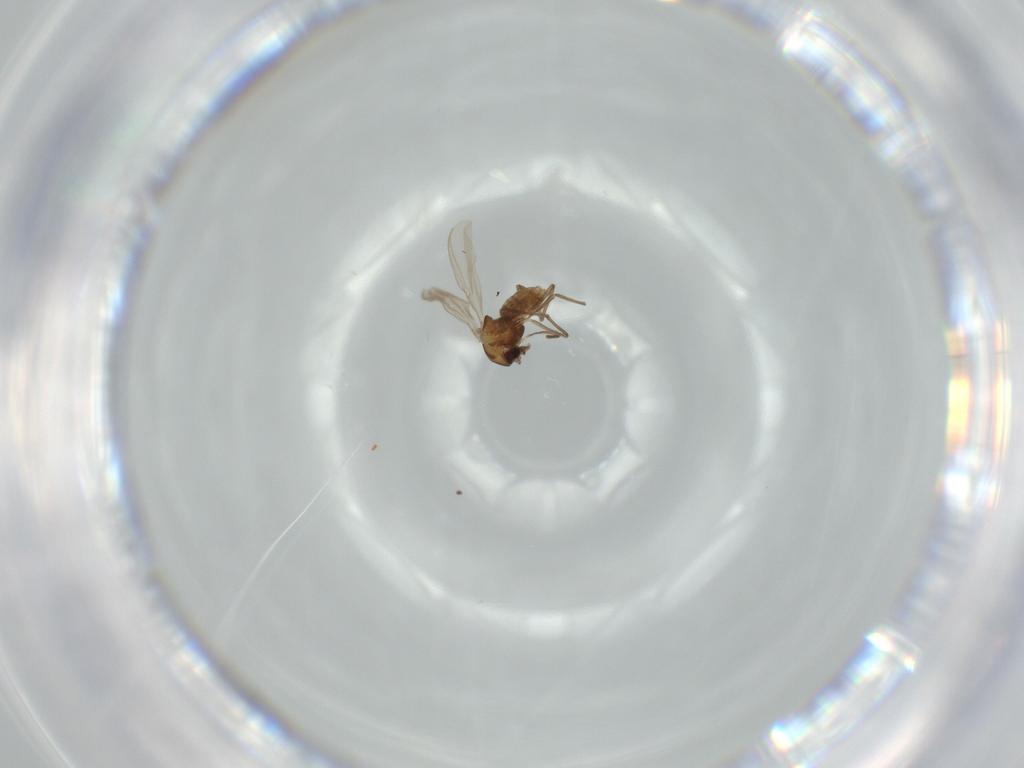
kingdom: Animalia
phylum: Arthropoda
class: Insecta
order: Diptera
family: Chironomidae
